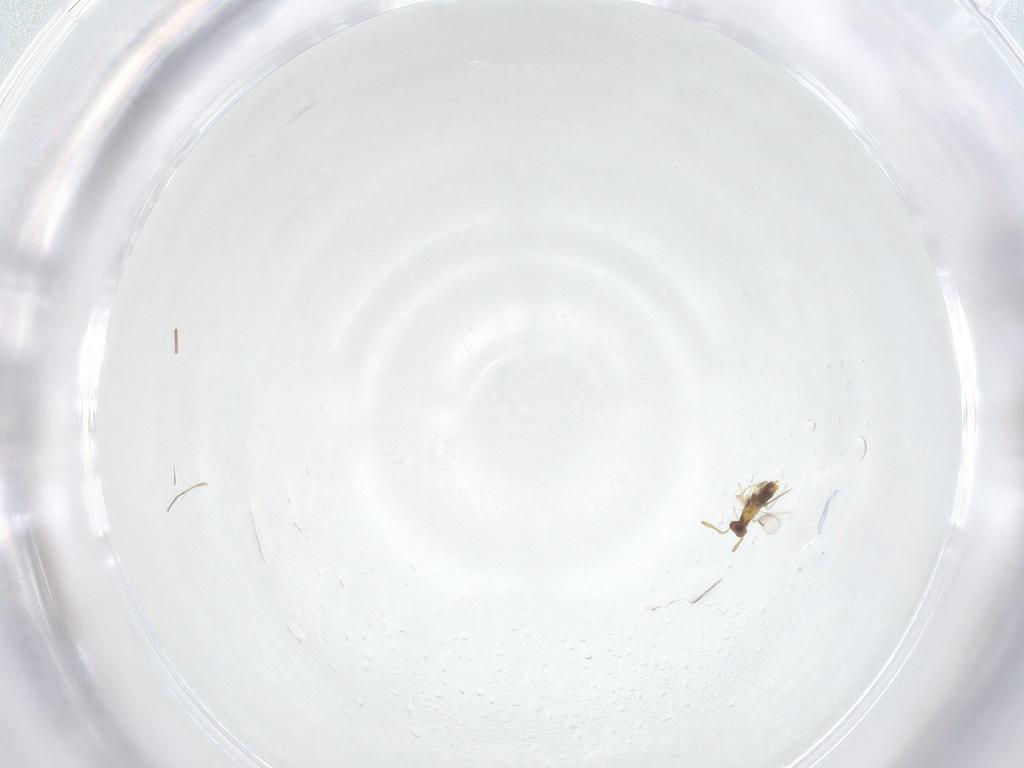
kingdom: Animalia
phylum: Arthropoda
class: Insecta
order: Hymenoptera
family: Aphelinidae
